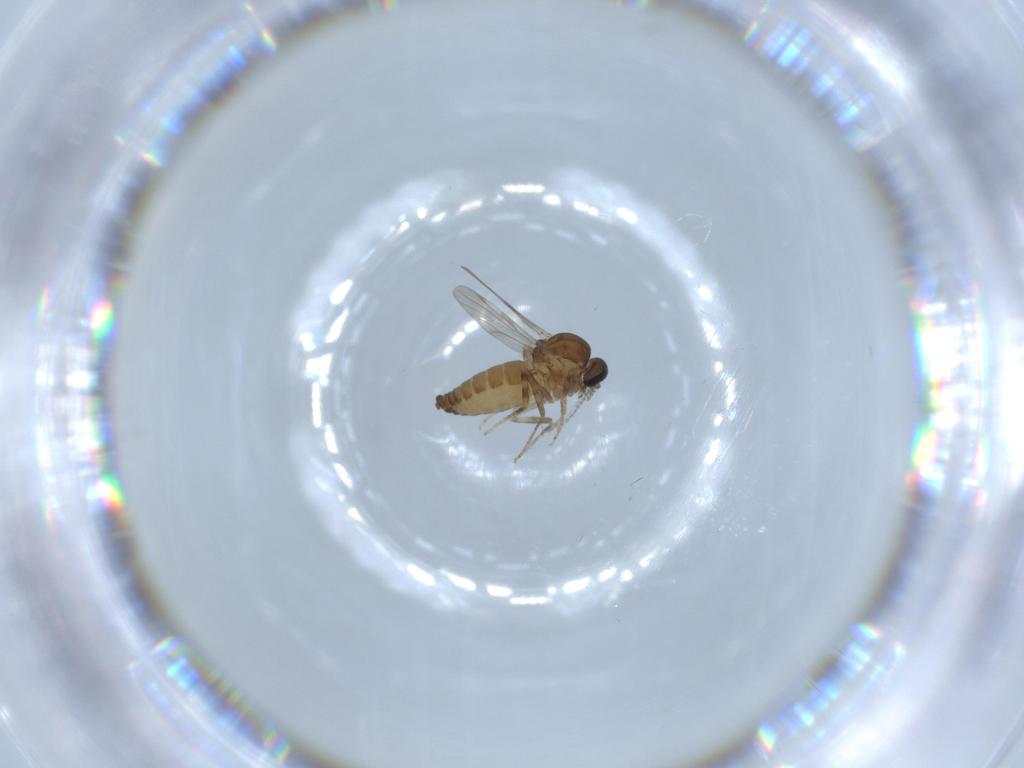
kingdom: Animalia
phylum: Arthropoda
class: Insecta
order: Diptera
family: Ceratopogonidae
